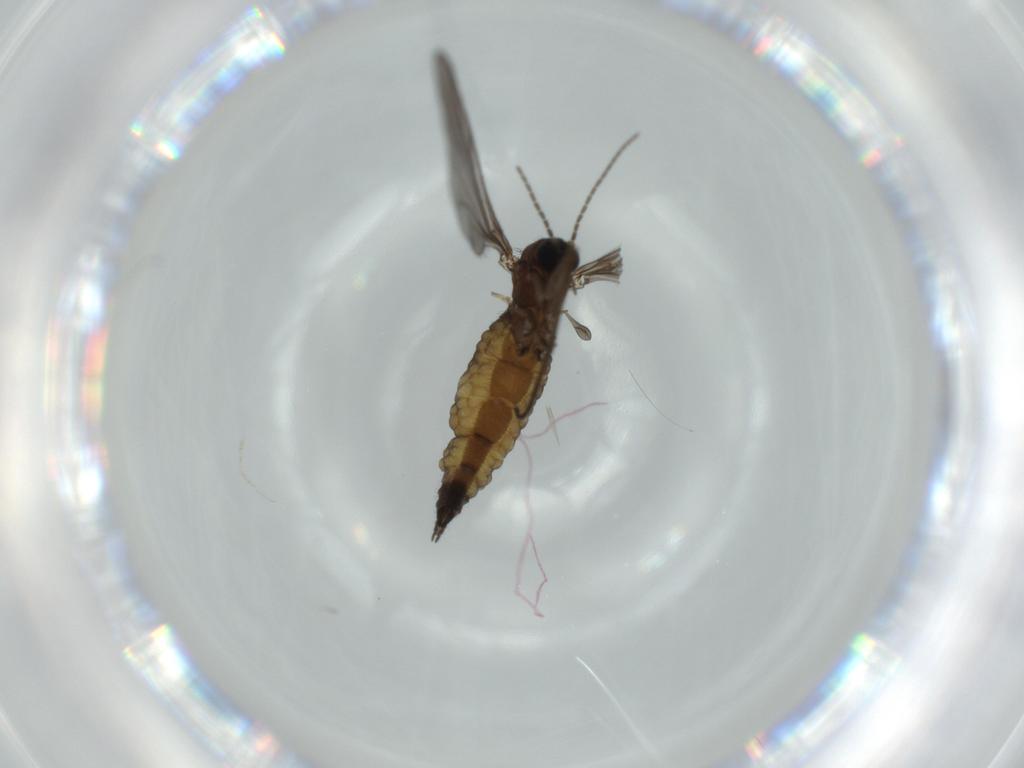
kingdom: Animalia
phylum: Arthropoda
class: Insecta
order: Diptera
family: Sciaridae
